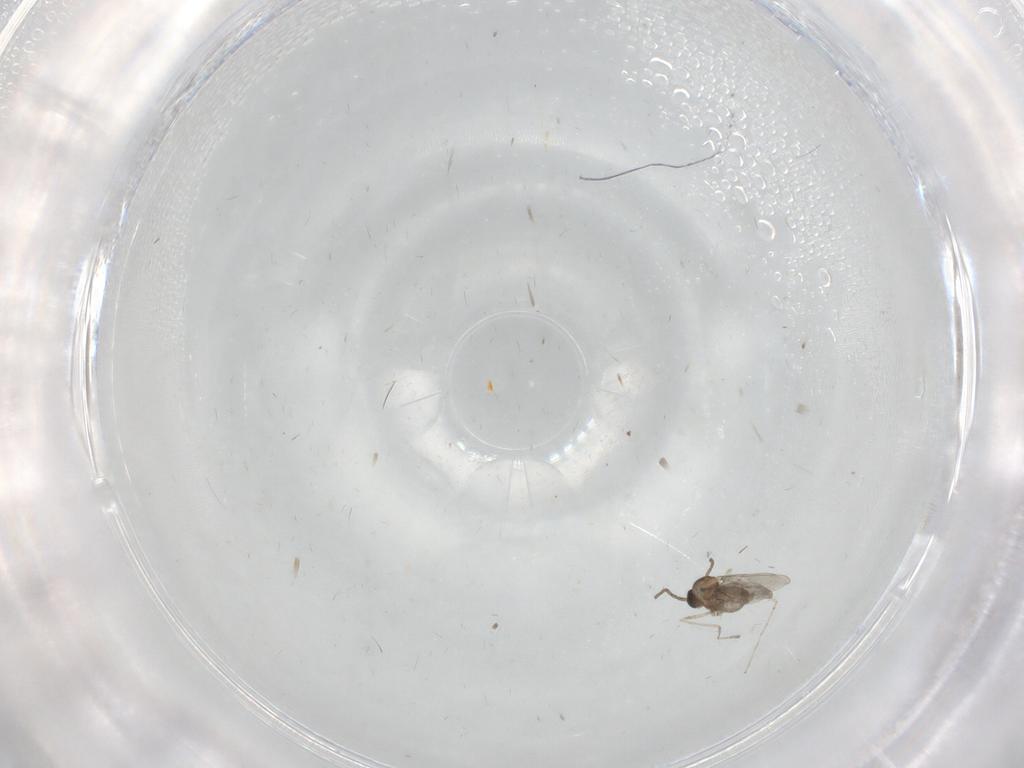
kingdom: Animalia
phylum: Arthropoda
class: Insecta
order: Diptera
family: Cecidomyiidae
